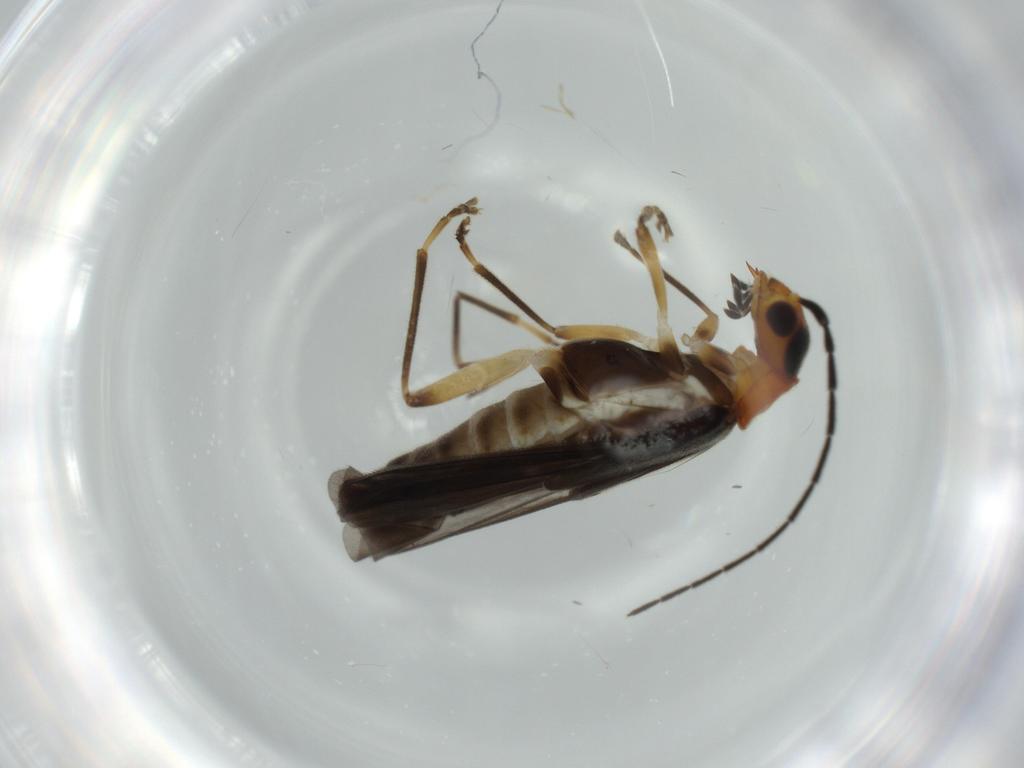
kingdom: Animalia
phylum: Arthropoda
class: Insecta
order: Coleoptera
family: Cantharidae
